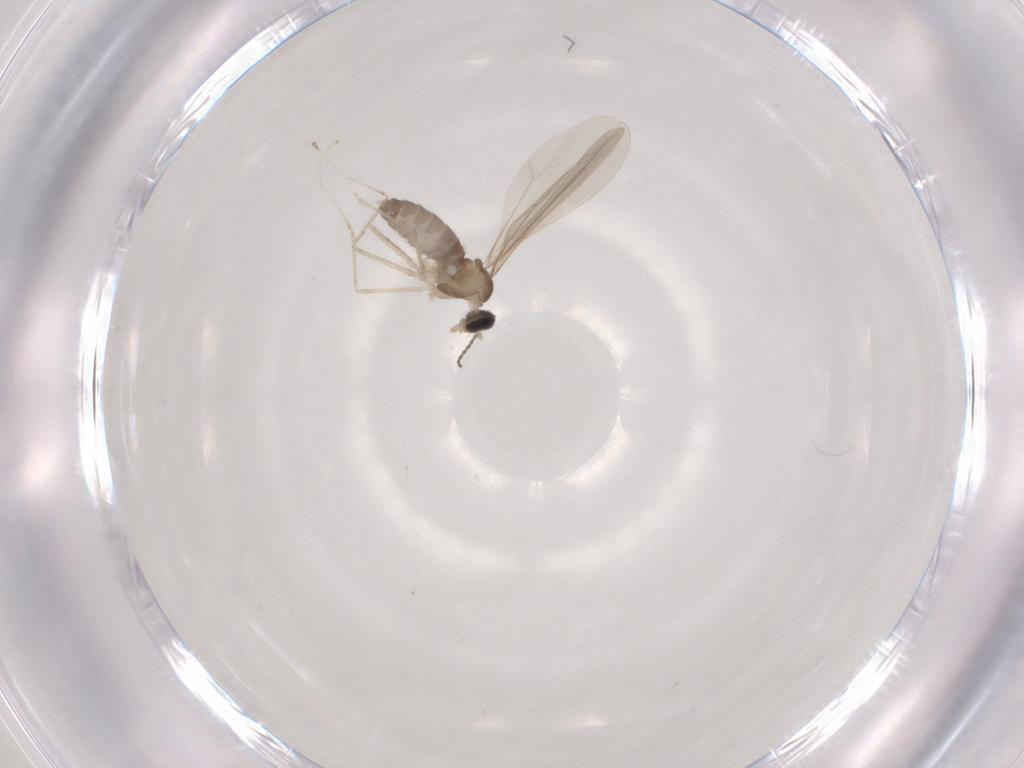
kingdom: Animalia
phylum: Arthropoda
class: Insecta
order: Diptera
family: Cecidomyiidae
